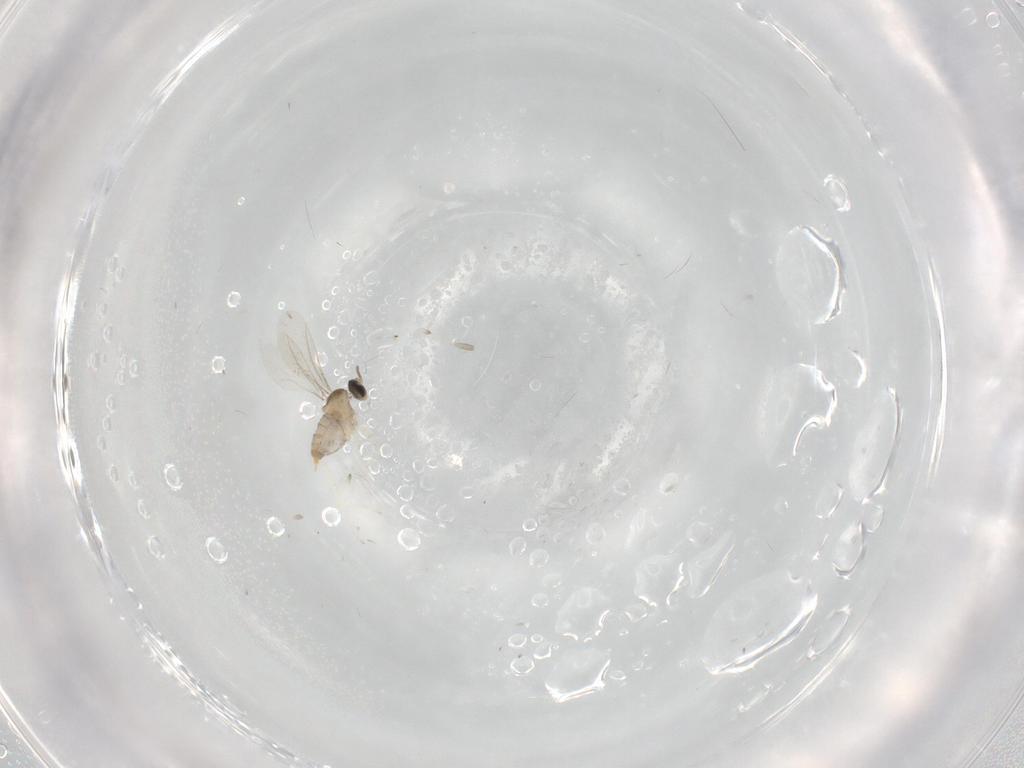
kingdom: Animalia
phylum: Arthropoda
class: Insecta
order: Diptera
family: Cecidomyiidae
